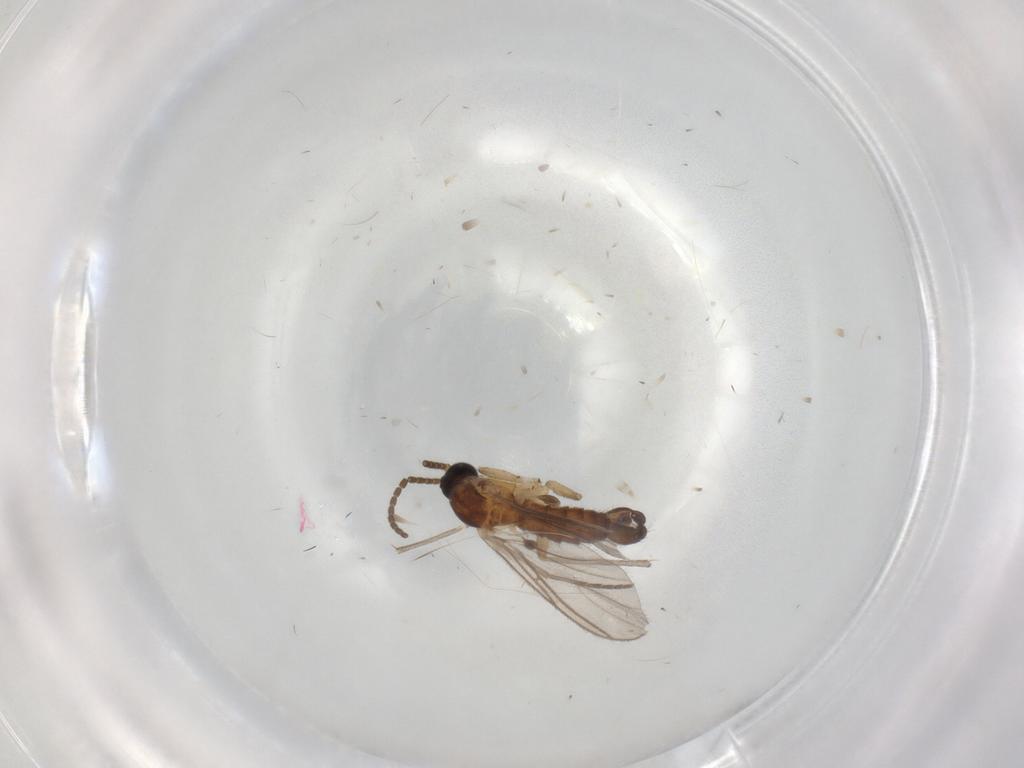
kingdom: Animalia
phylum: Arthropoda
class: Insecta
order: Diptera
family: Sciaridae
